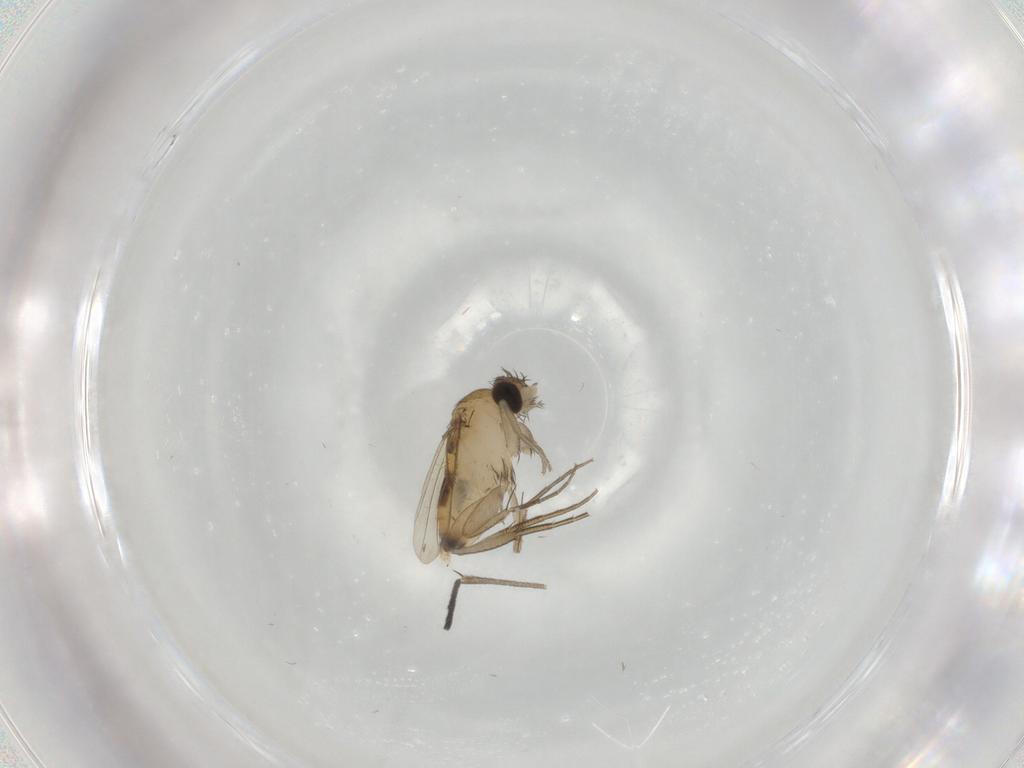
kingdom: Animalia
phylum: Arthropoda
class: Insecta
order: Diptera
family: Phoridae
